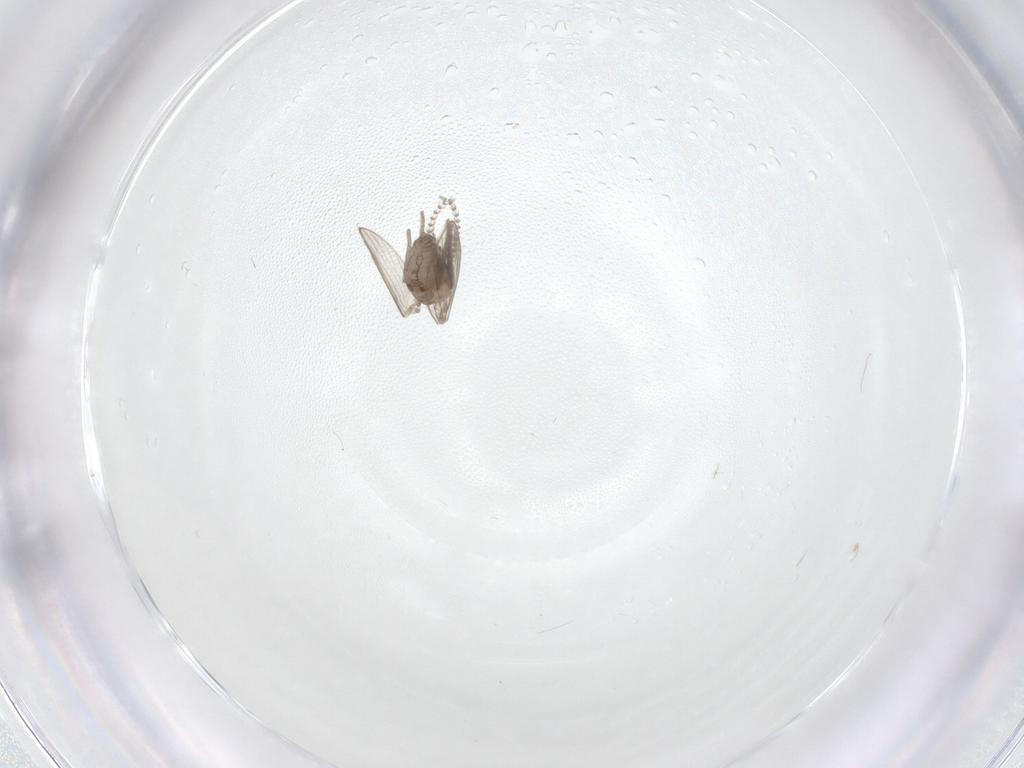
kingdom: Animalia
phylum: Arthropoda
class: Insecta
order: Diptera
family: Psychodidae
